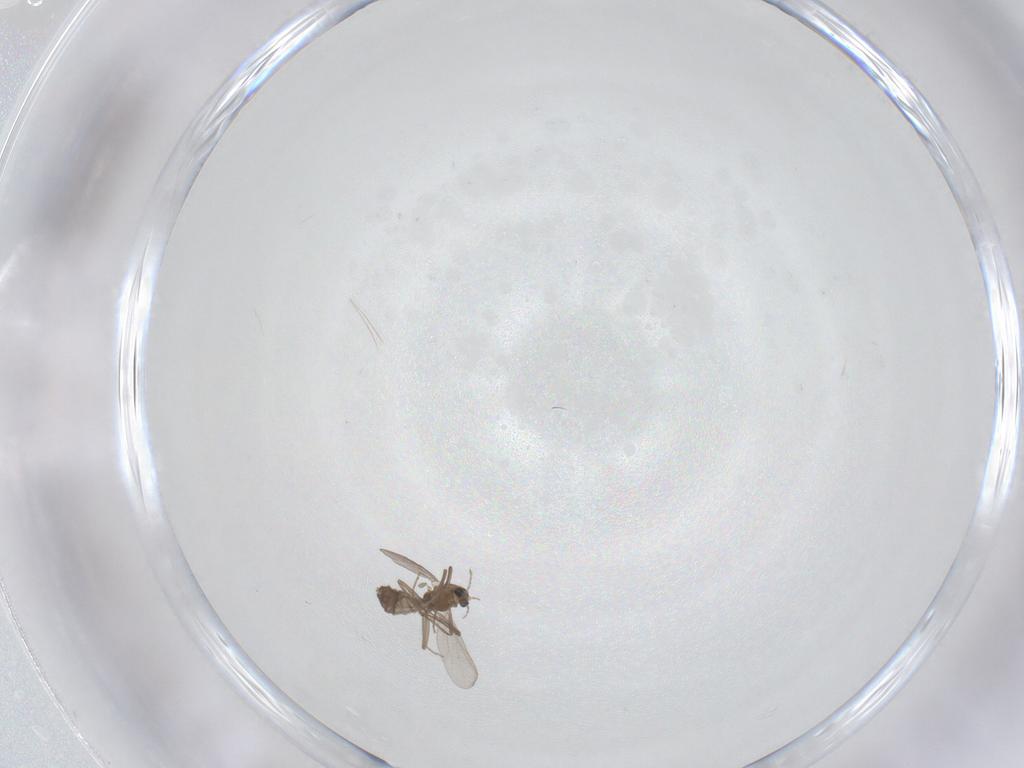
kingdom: Animalia
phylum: Arthropoda
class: Insecta
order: Diptera
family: Chironomidae
